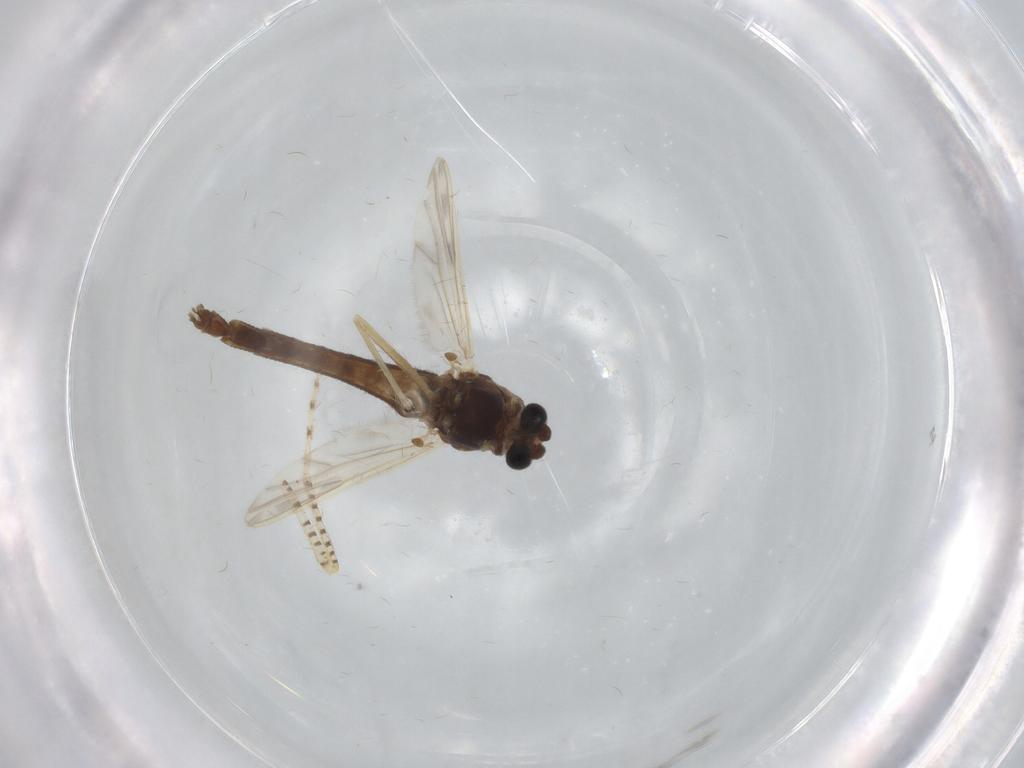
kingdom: Animalia
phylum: Arthropoda
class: Insecta
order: Diptera
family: Chironomidae
